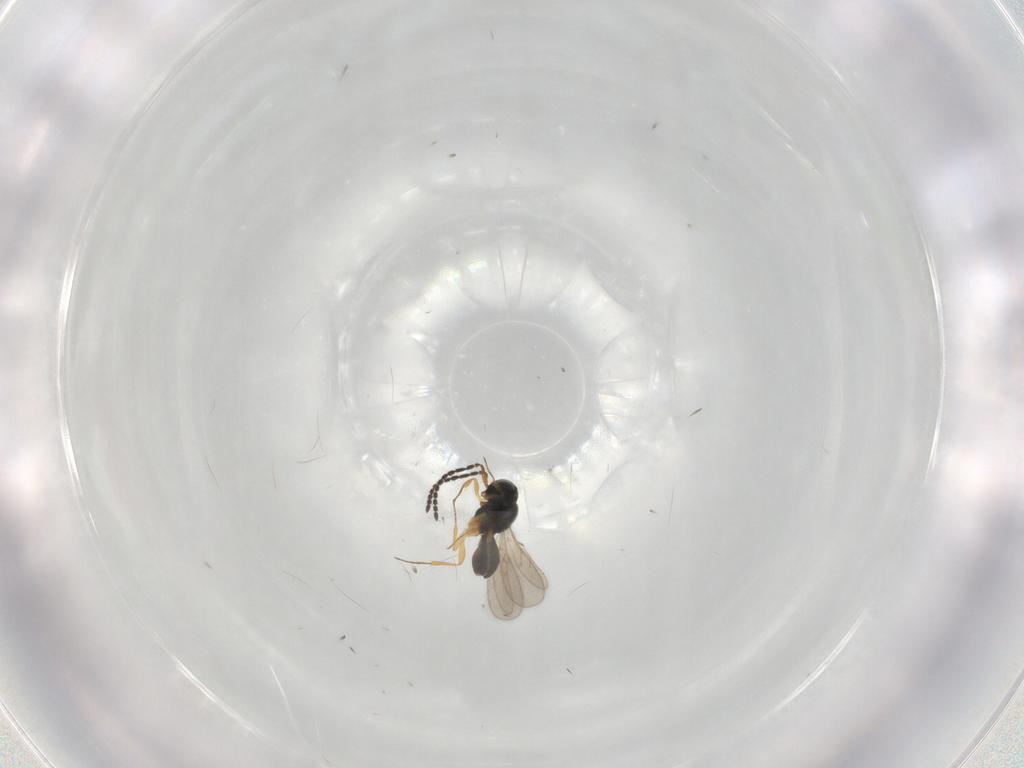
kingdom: Animalia
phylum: Arthropoda
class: Insecta
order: Hymenoptera
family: Scelionidae
